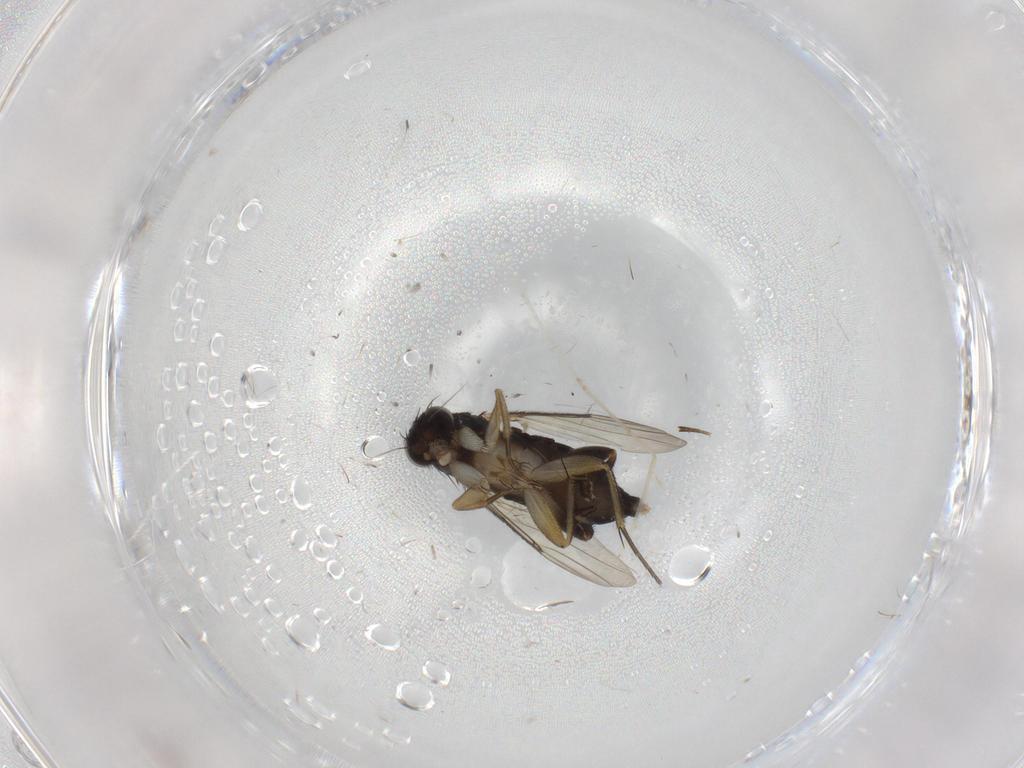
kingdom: Animalia
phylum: Arthropoda
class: Insecta
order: Diptera
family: Phoridae
